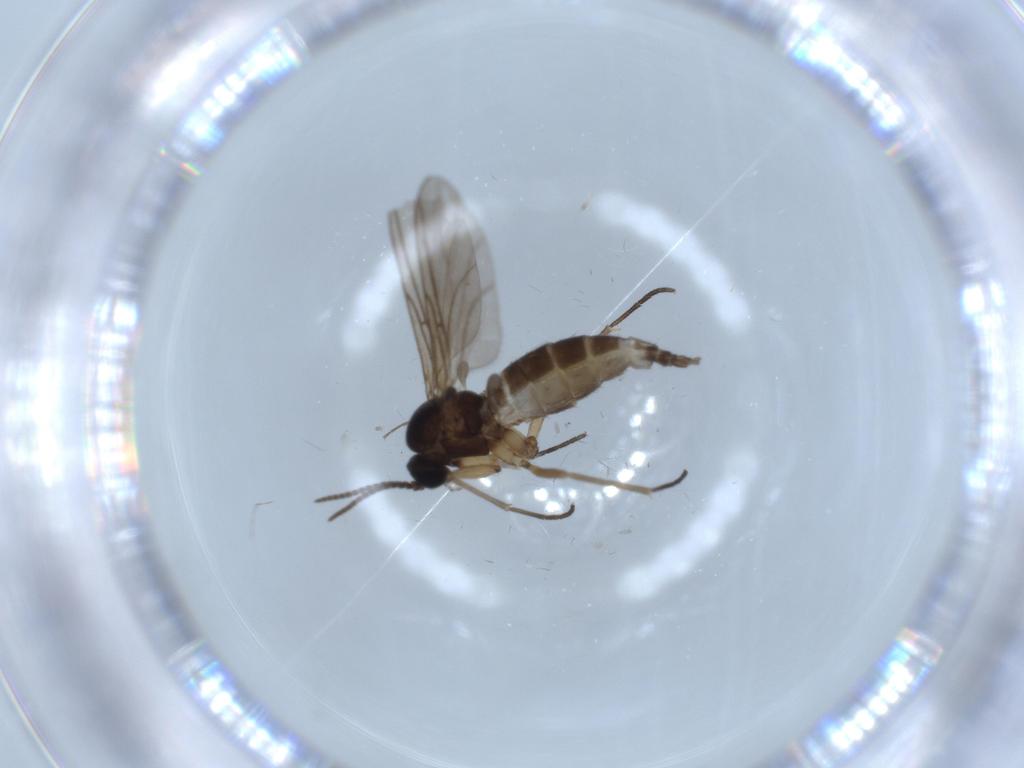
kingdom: Animalia
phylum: Arthropoda
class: Insecta
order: Diptera
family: Sciaridae
